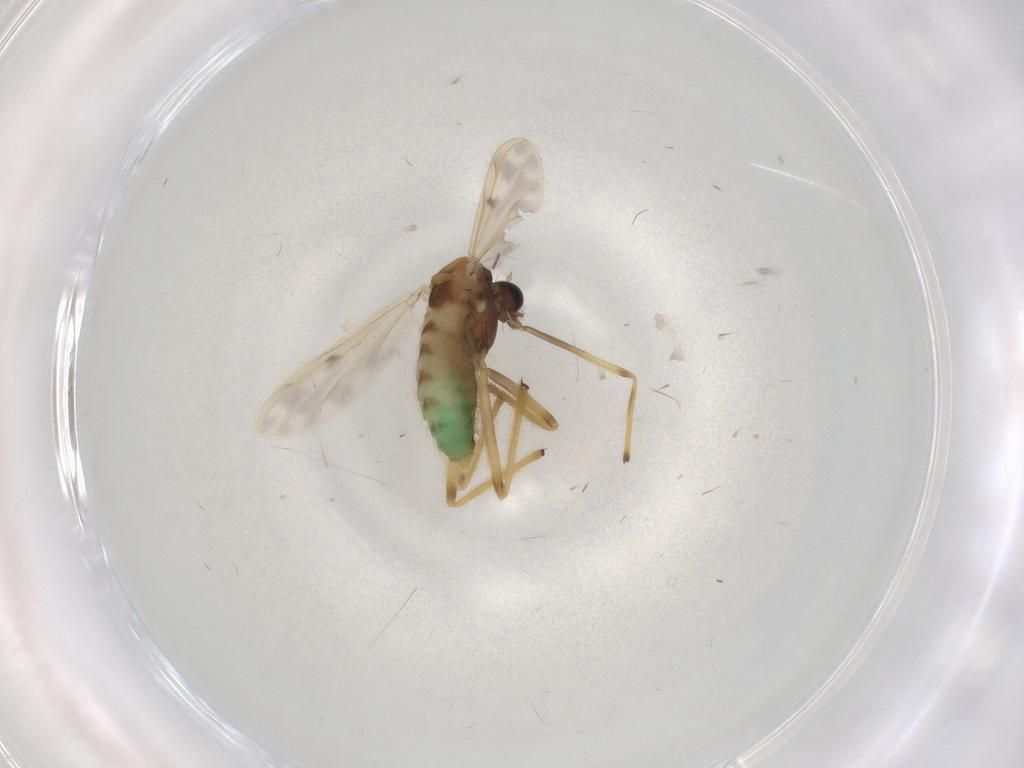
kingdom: Animalia
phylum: Arthropoda
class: Insecta
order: Diptera
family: Chironomidae
